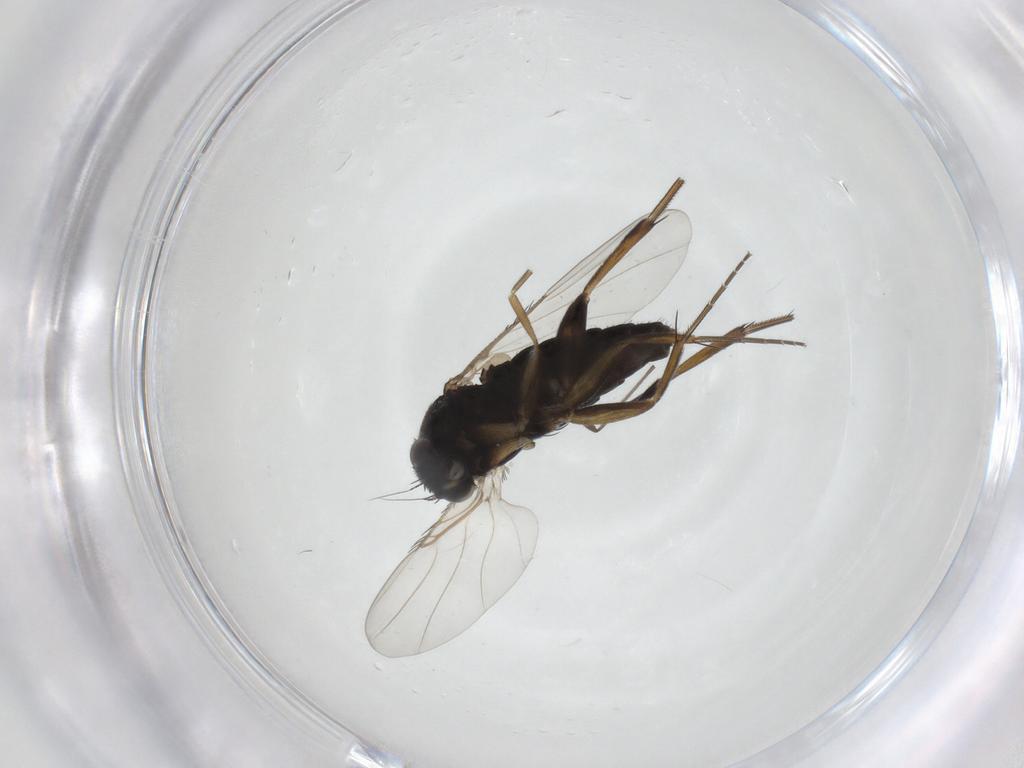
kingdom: Animalia
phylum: Arthropoda
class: Insecta
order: Diptera
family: Phoridae
